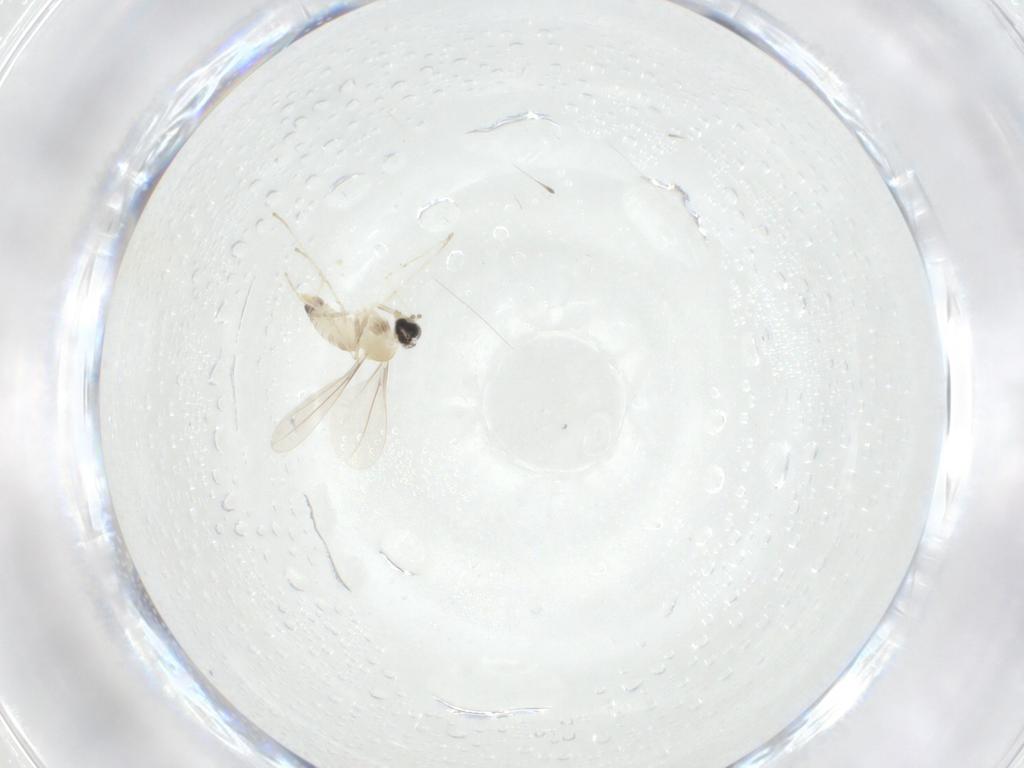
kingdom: Animalia
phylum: Arthropoda
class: Insecta
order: Diptera
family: Cecidomyiidae
